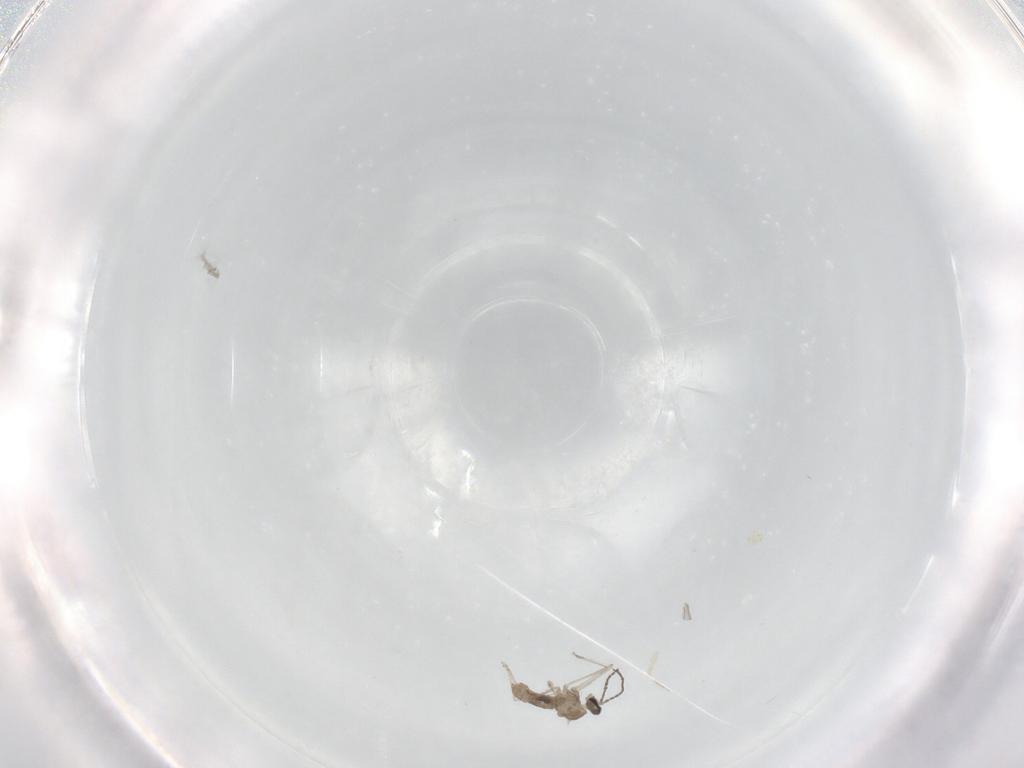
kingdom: Animalia
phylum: Arthropoda
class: Insecta
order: Diptera
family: Cecidomyiidae
